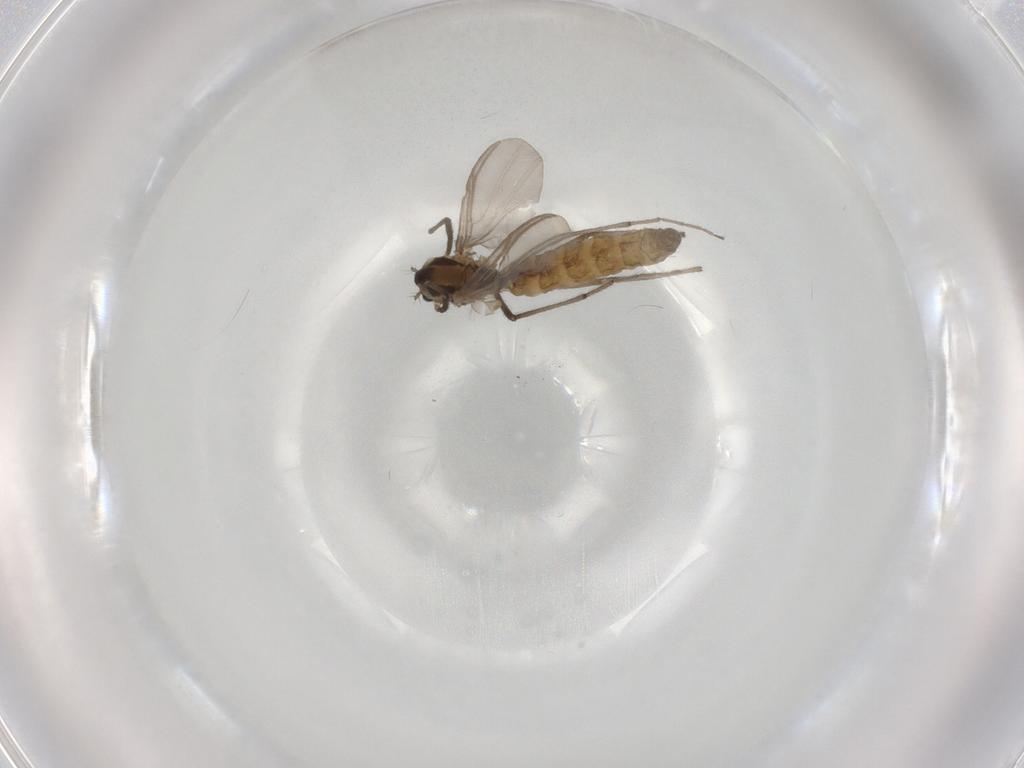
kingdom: Animalia
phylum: Arthropoda
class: Insecta
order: Diptera
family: Chironomidae
